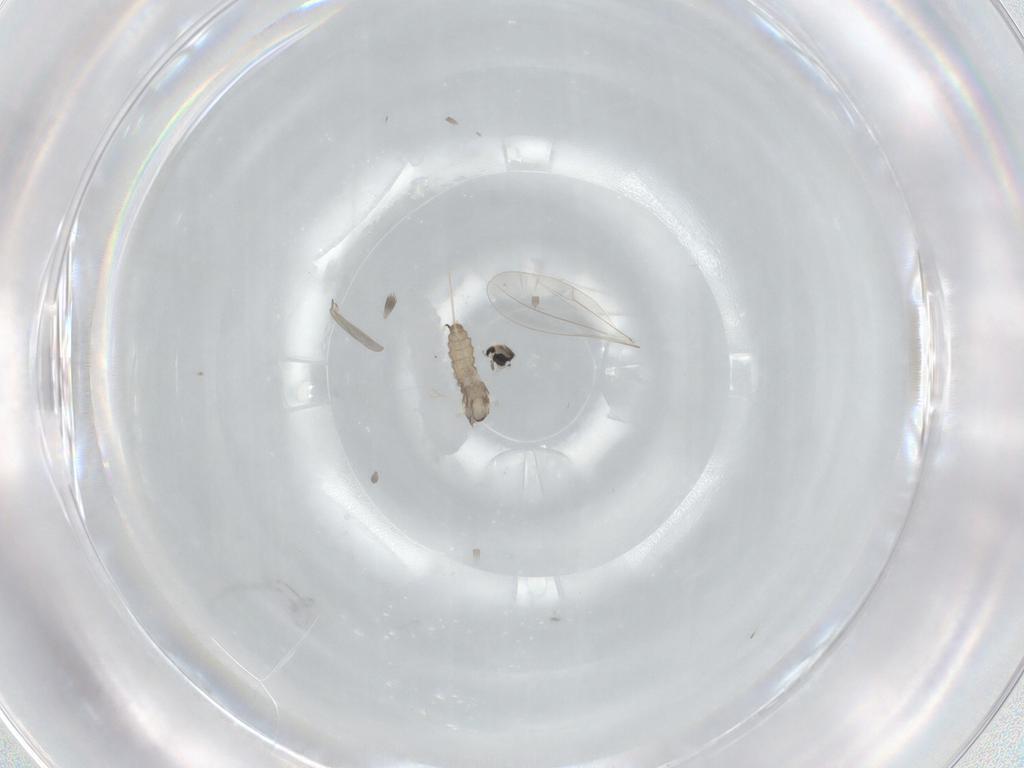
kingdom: Animalia
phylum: Arthropoda
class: Insecta
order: Diptera
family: Cecidomyiidae
